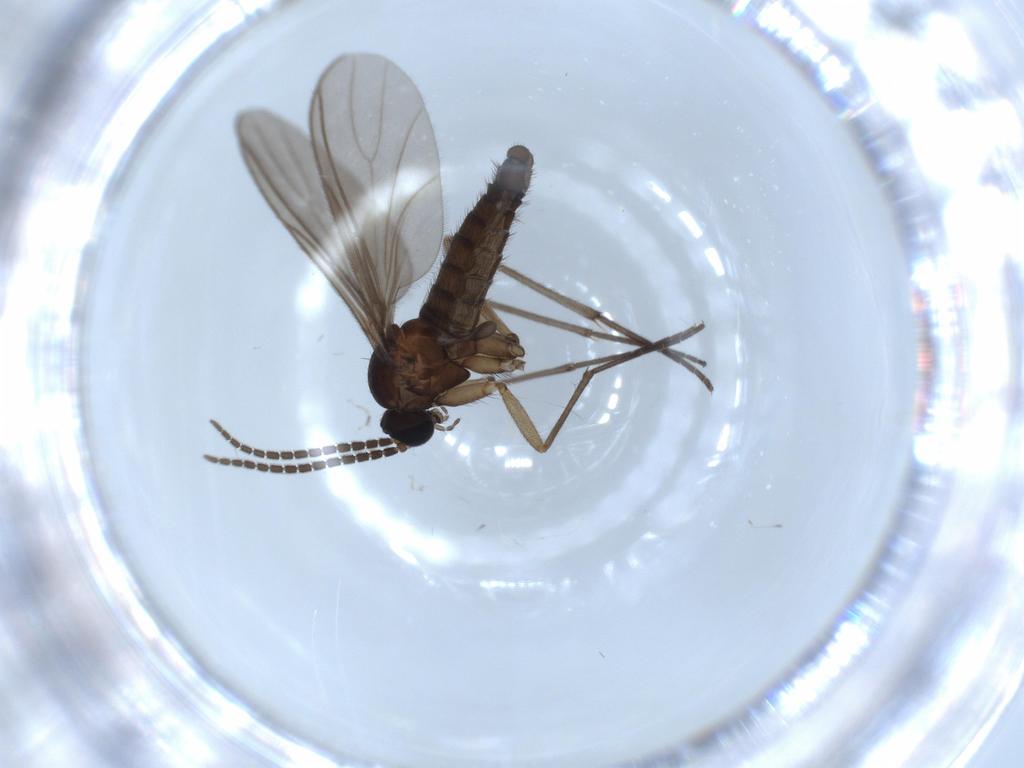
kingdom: Animalia
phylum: Arthropoda
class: Insecta
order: Diptera
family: Sciaridae
